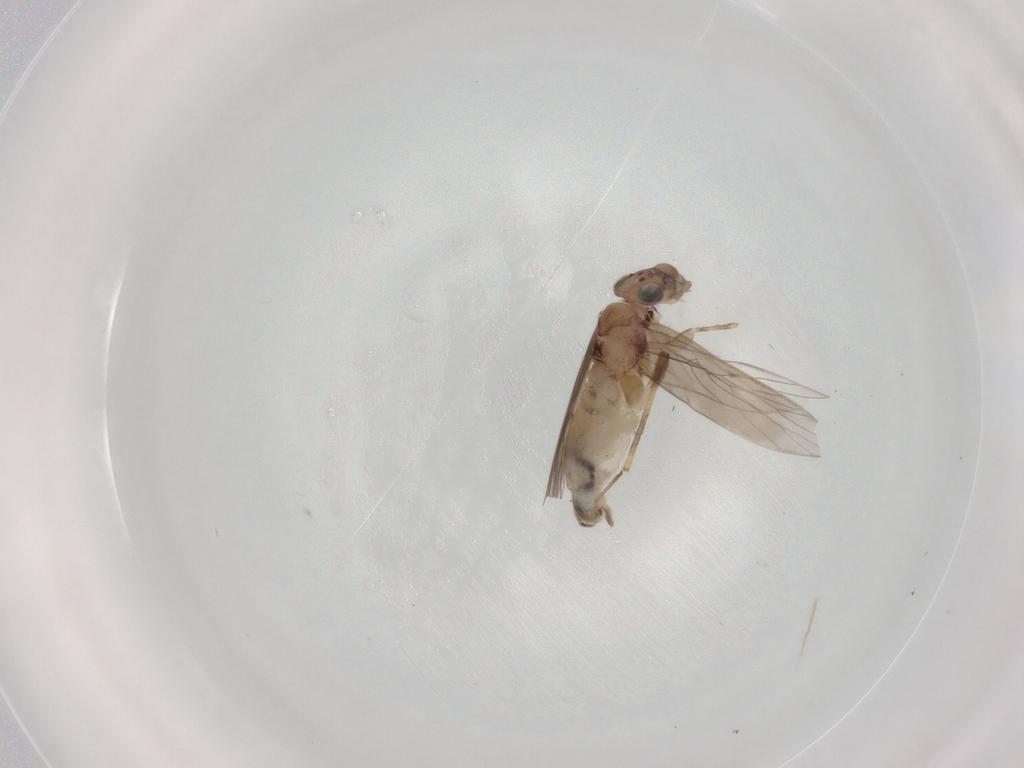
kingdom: Animalia
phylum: Arthropoda
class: Insecta
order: Psocodea
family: Lepidopsocidae
